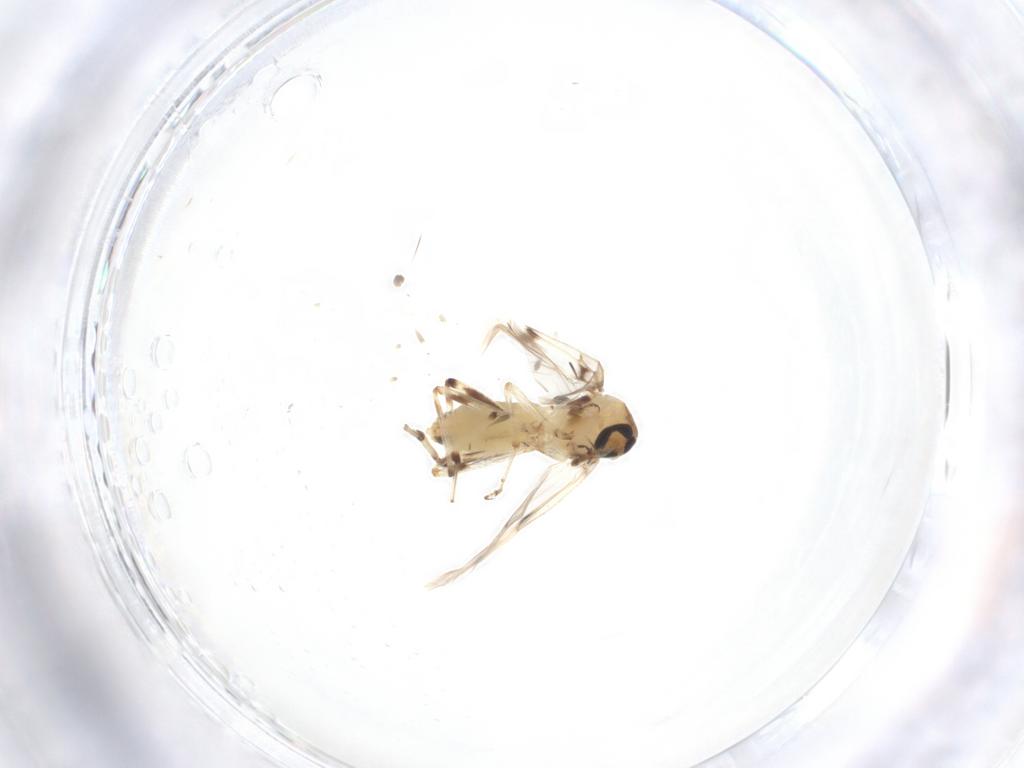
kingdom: Animalia
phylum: Arthropoda
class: Insecta
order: Diptera
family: Ceratopogonidae
